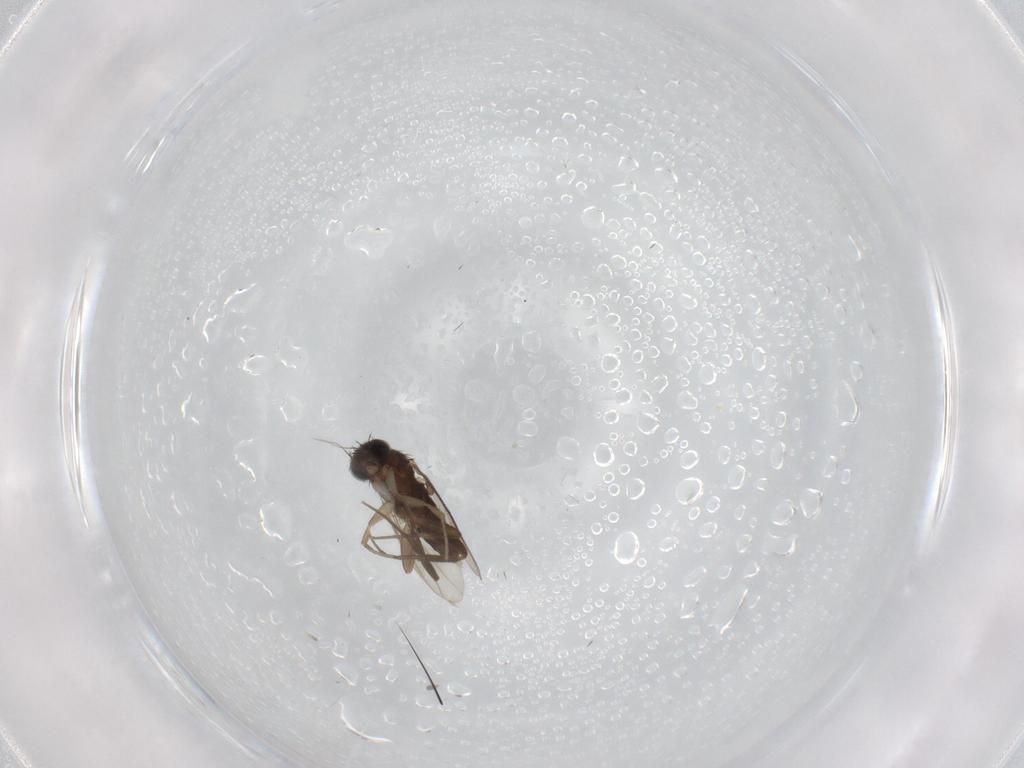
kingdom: Animalia
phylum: Arthropoda
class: Insecta
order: Diptera
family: Phoridae
